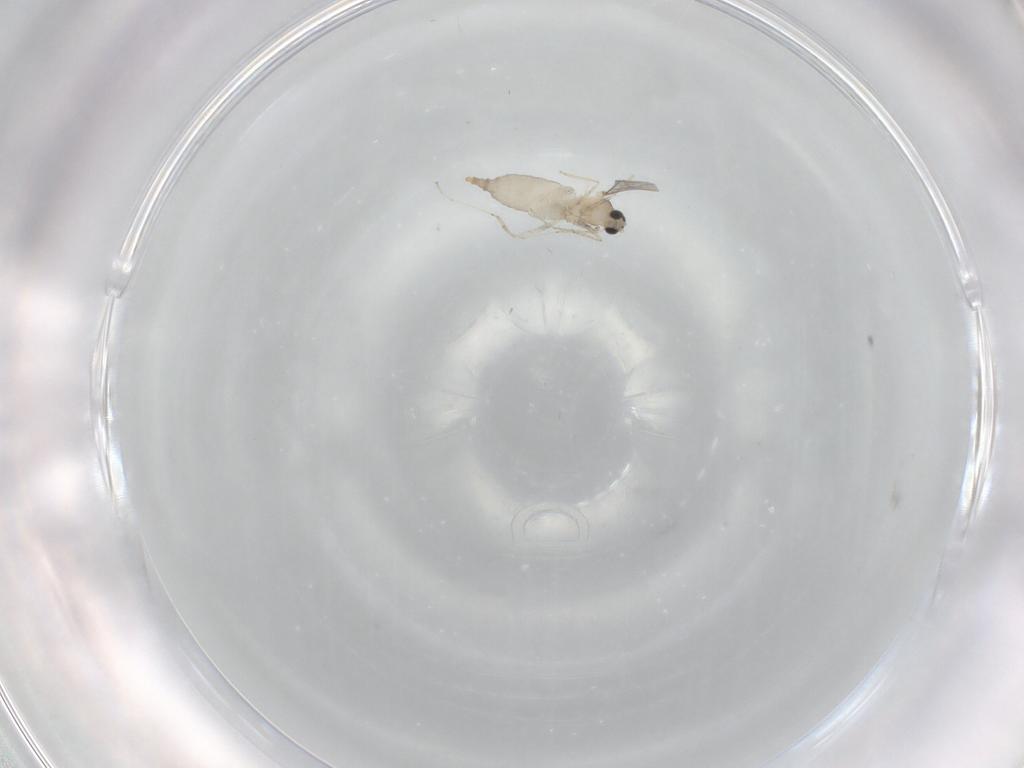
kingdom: Animalia
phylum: Arthropoda
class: Insecta
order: Diptera
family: Cecidomyiidae
